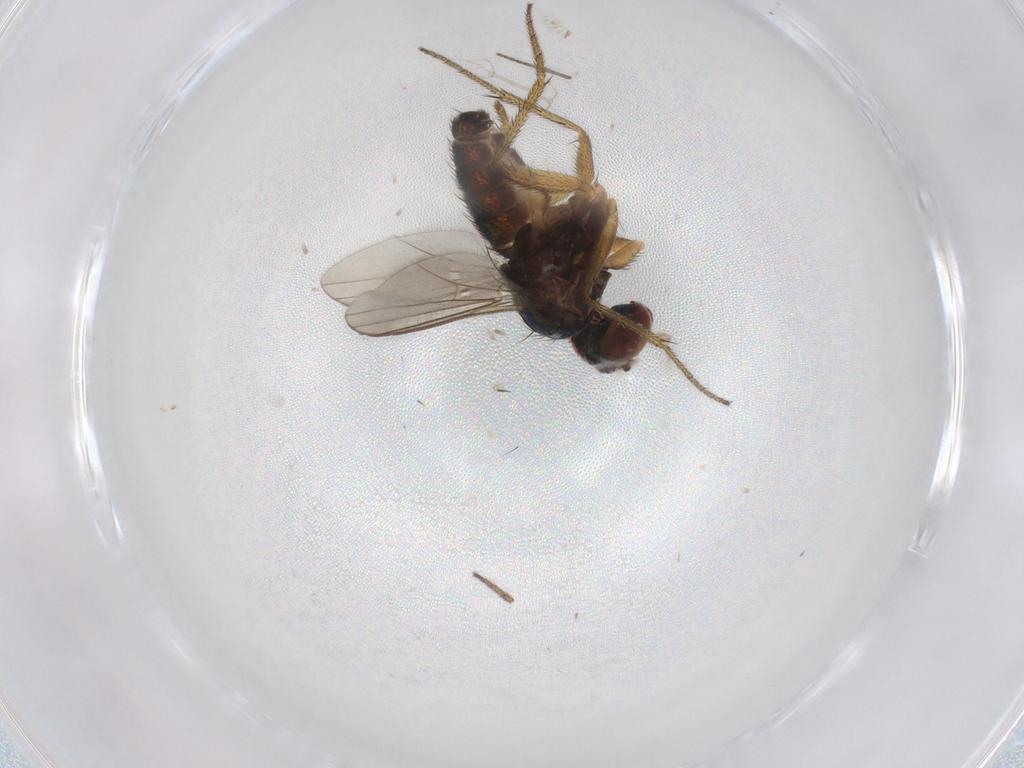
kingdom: Animalia
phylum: Arthropoda
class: Insecta
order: Diptera
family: Sciaridae
